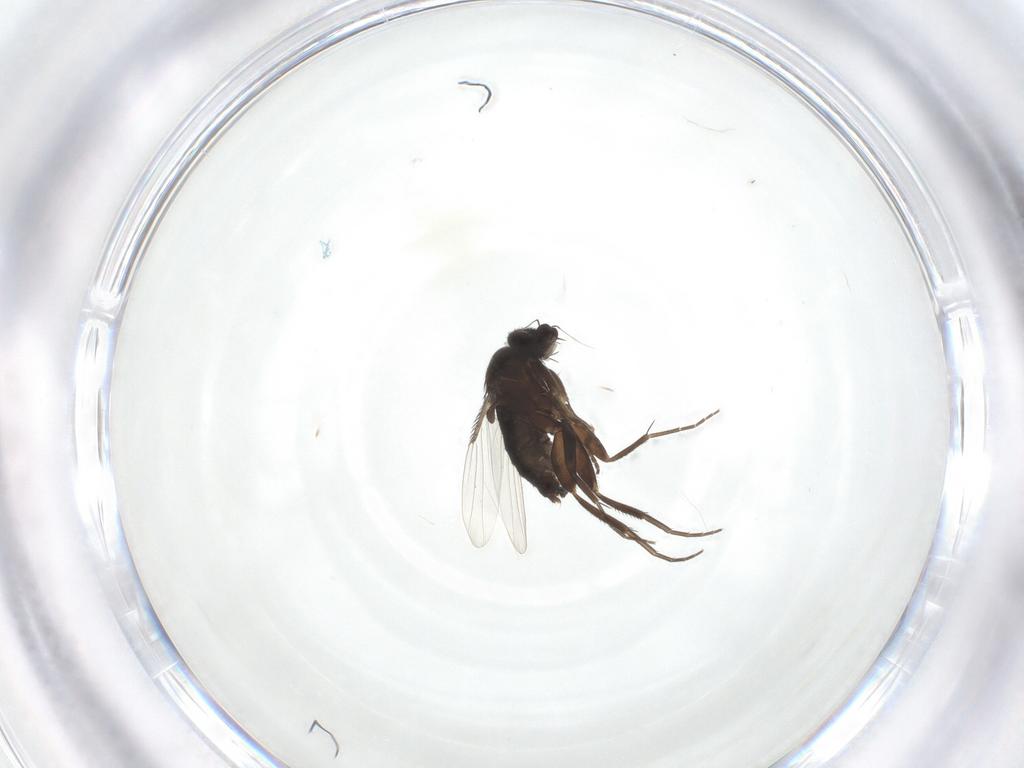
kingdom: Animalia
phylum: Arthropoda
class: Insecta
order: Diptera
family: Phoridae
